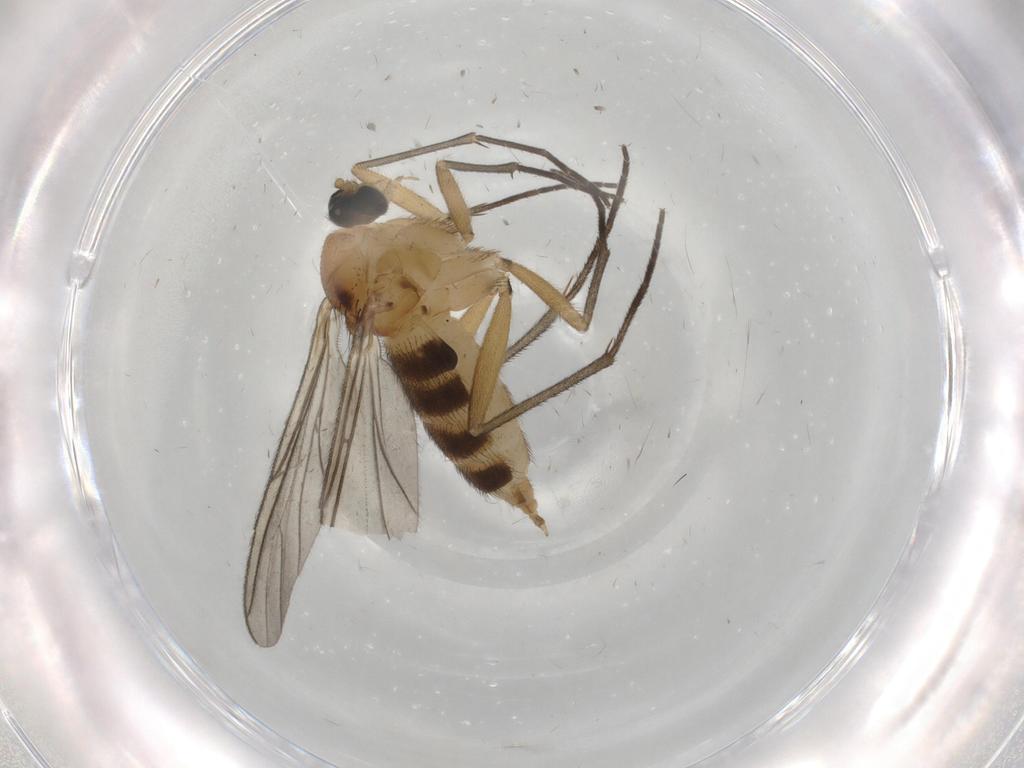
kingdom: Animalia
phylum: Arthropoda
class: Insecta
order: Diptera
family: Sciaridae
